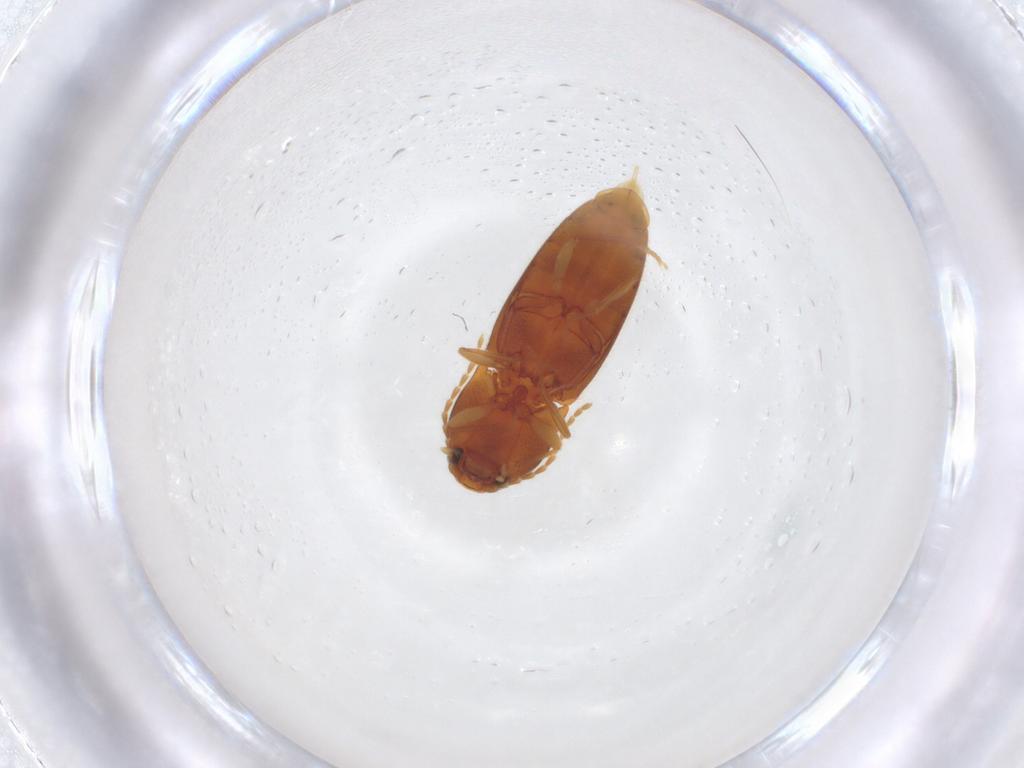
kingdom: Animalia
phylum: Arthropoda
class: Insecta
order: Coleoptera
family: Elateridae
